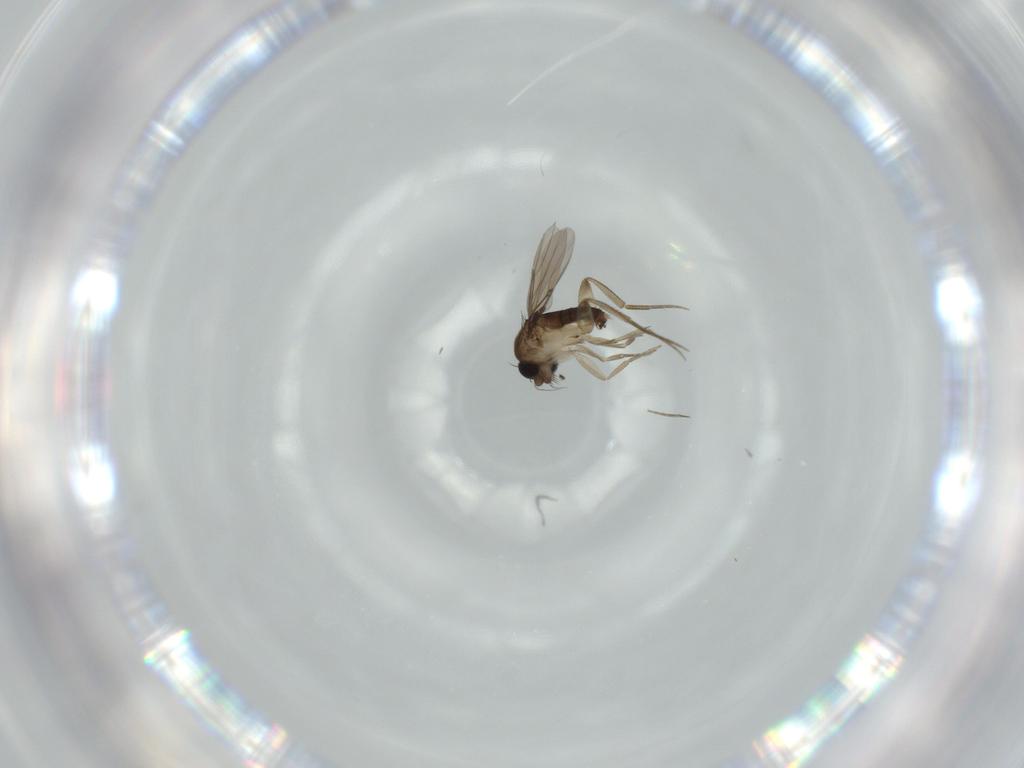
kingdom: Animalia
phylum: Arthropoda
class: Insecta
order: Diptera
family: Phoridae
